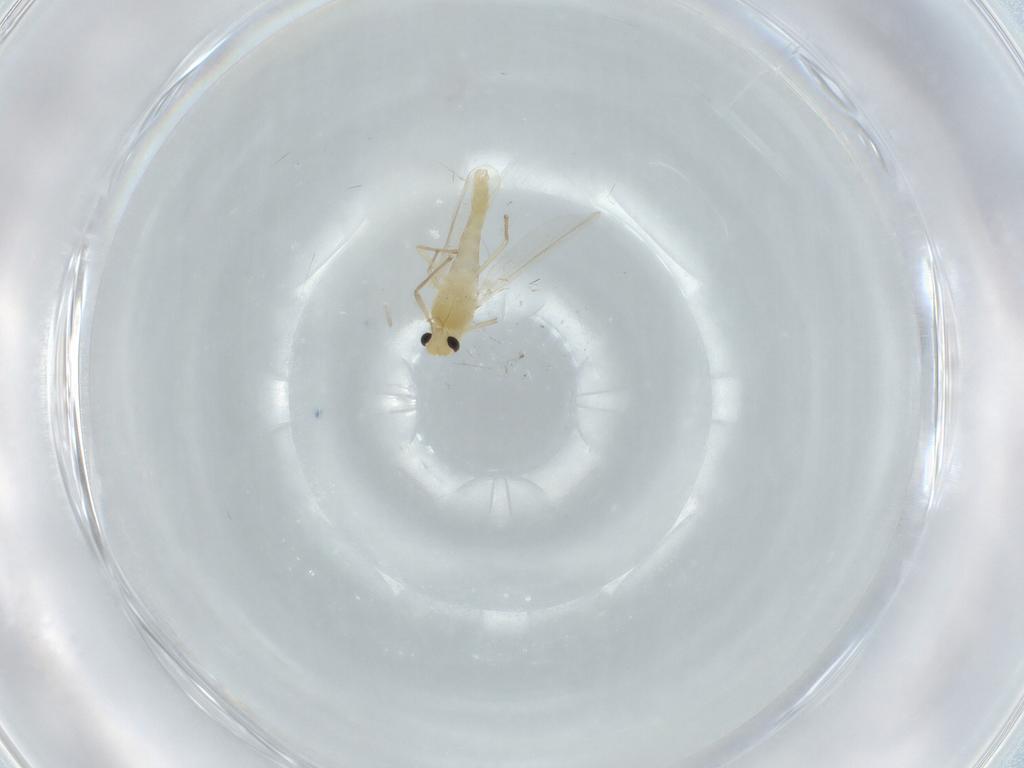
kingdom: Animalia
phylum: Arthropoda
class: Insecta
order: Diptera
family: Chironomidae
